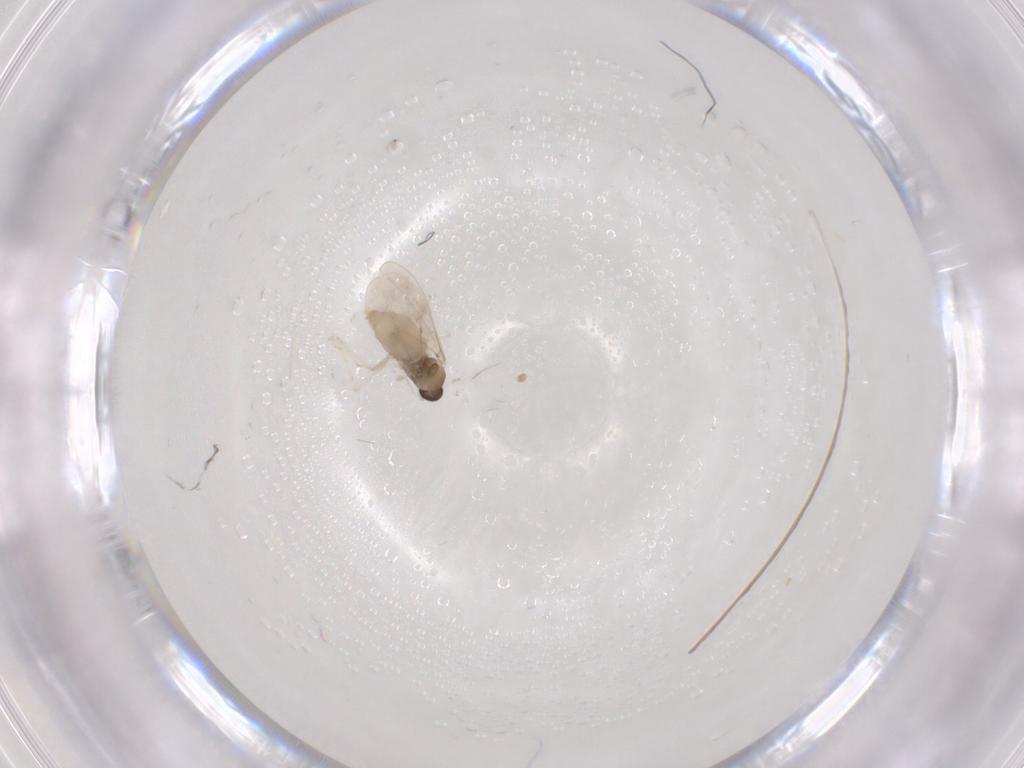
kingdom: Animalia
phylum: Arthropoda
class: Insecta
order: Diptera
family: Cecidomyiidae
